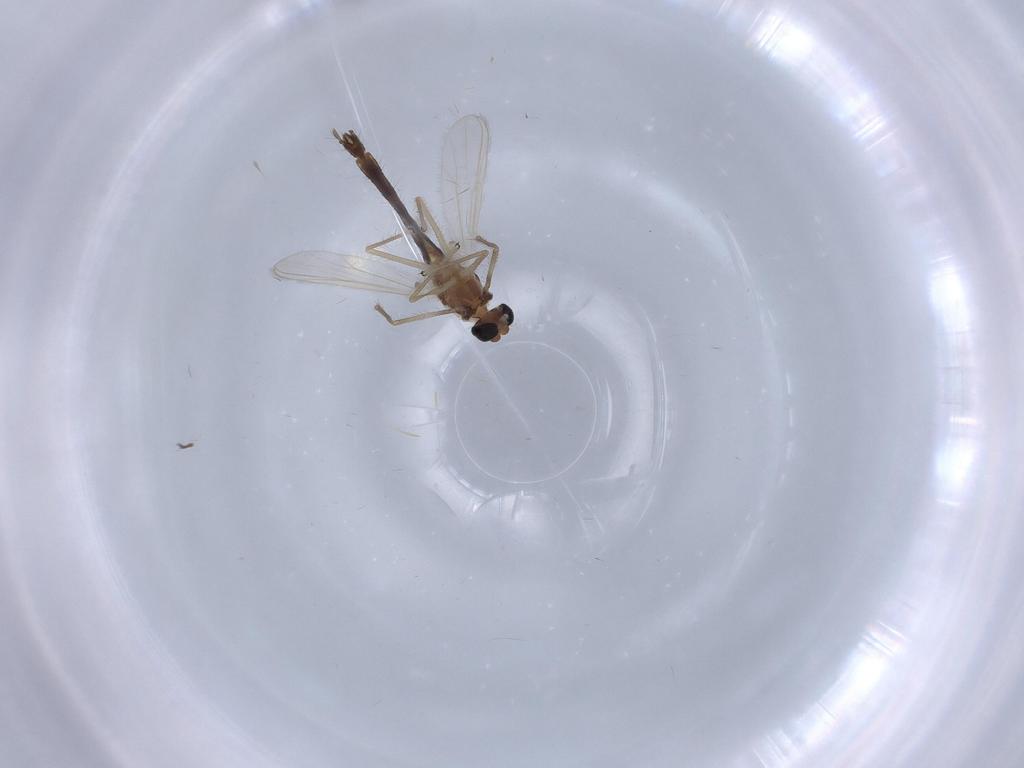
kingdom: Animalia
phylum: Arthropoda
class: Insecta
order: Diptera
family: Chironomidae
